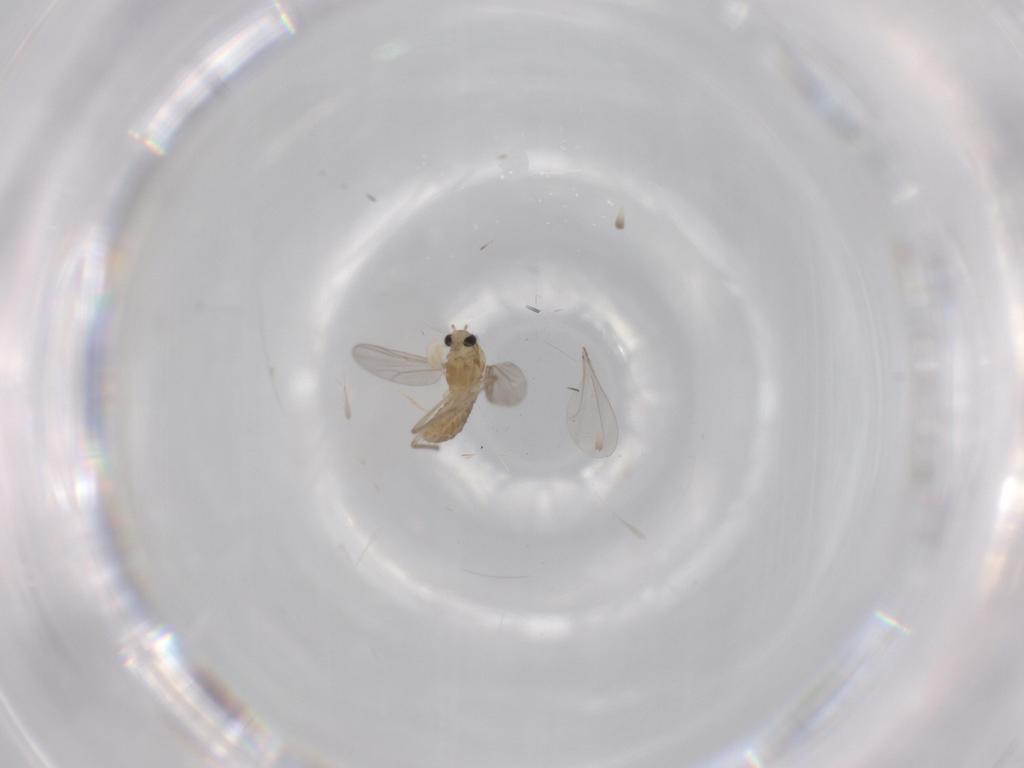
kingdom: Animalia
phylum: Arthropoda
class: Insecta
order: Diptera
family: Chironomidae
